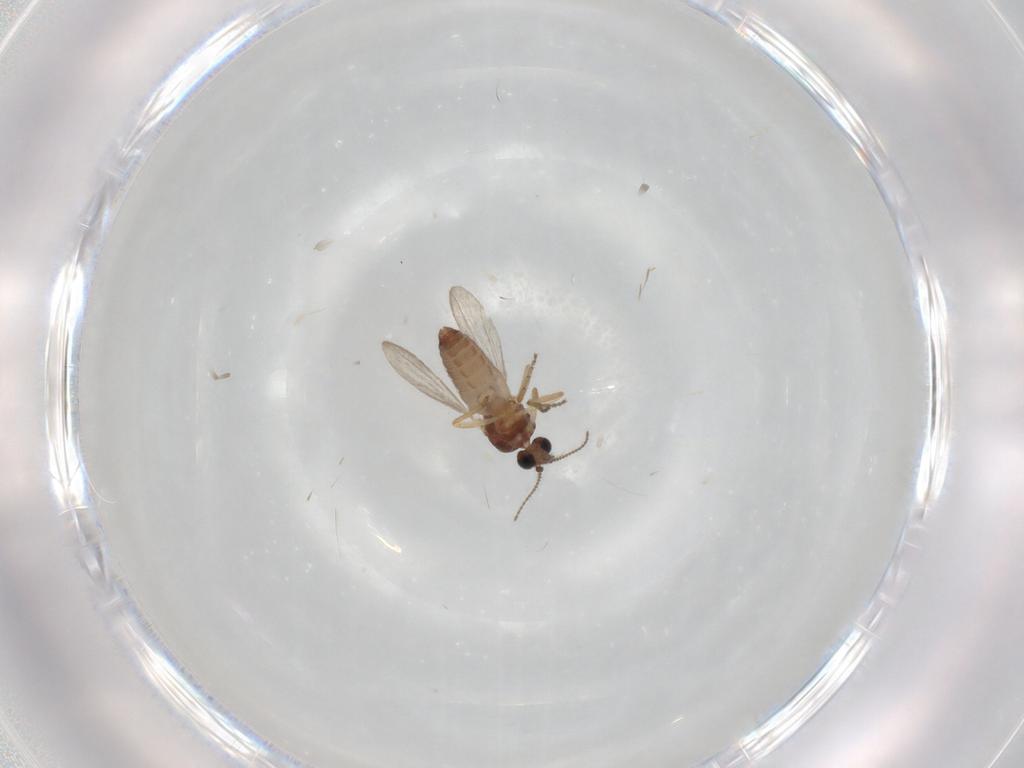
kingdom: Animalia
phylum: Arthropoda
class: Insecta
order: Diptera
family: Ceratopogonidae
